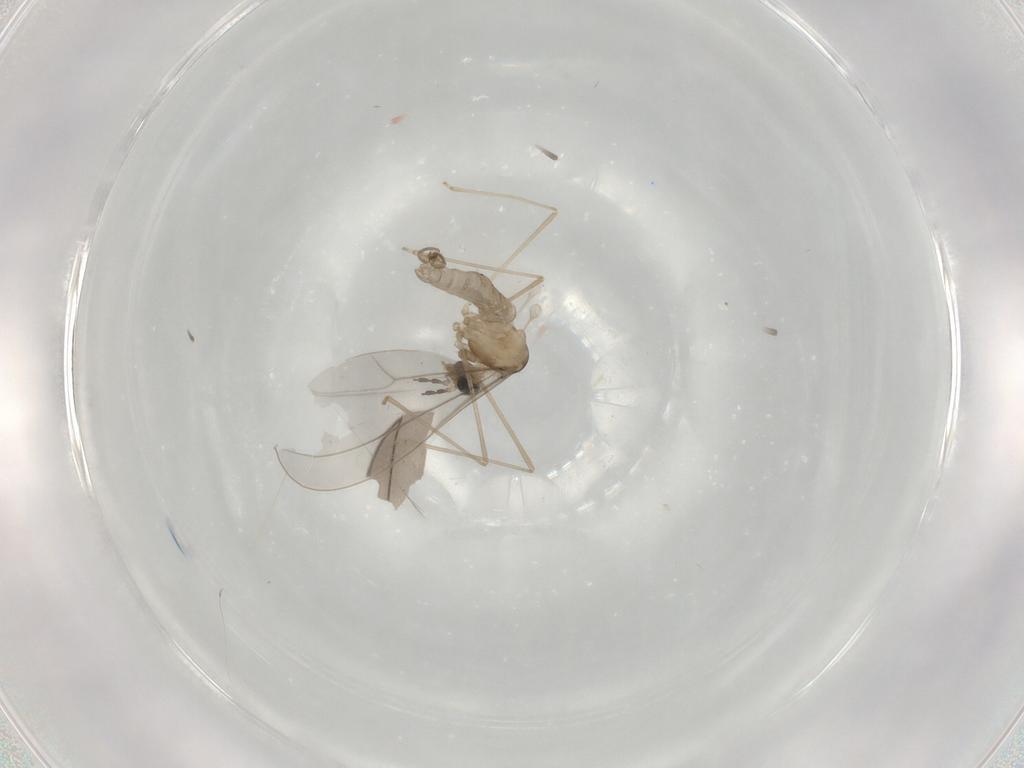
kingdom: Animalia
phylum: Arthropoda
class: Insecta
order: Diptera
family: Cecidomyiidae
